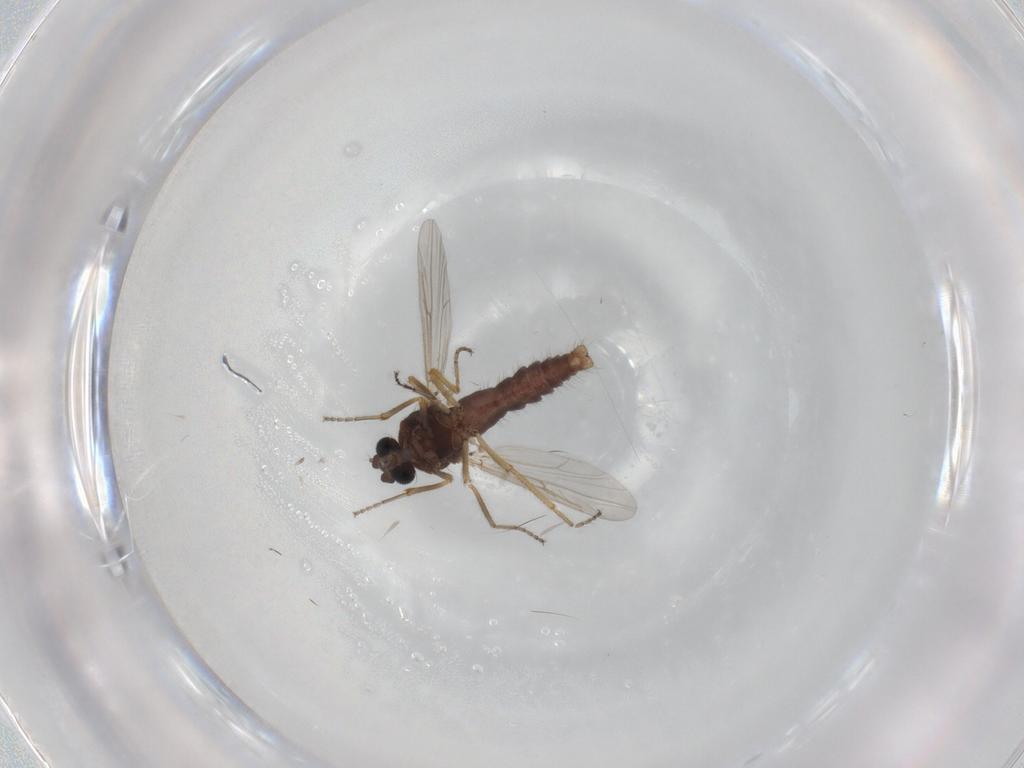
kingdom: Animalia
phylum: Arthropoda
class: Insecta
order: Diptera
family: Ceratopogonidae
